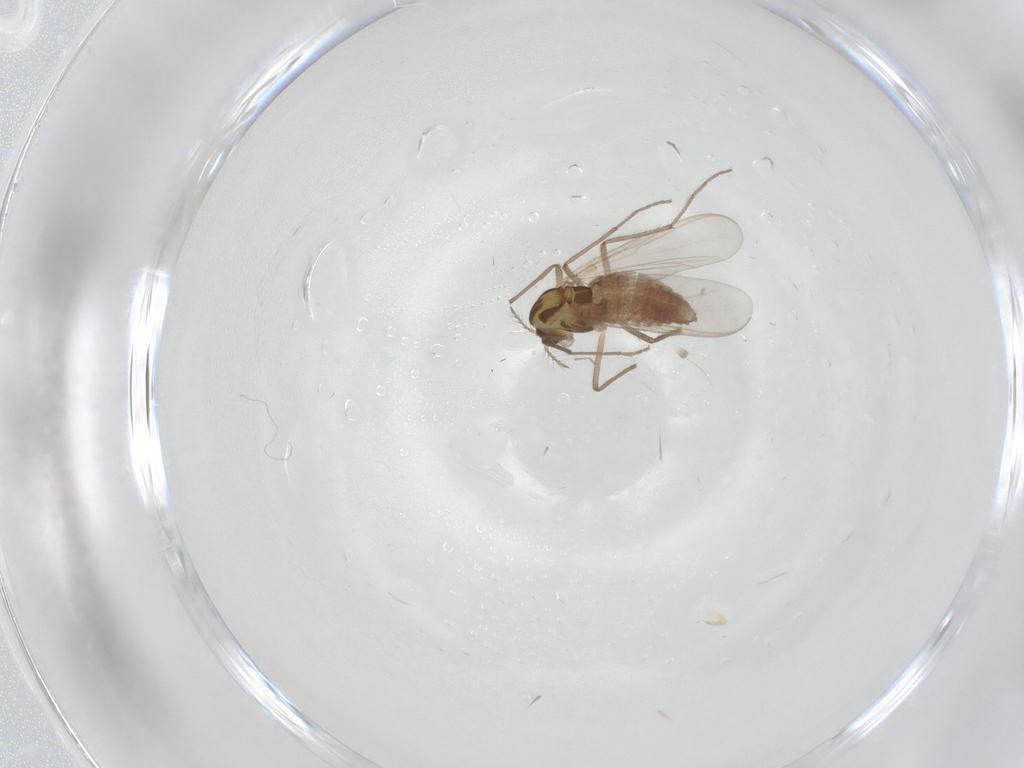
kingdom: Animalia
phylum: Arthropoda
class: Insecta
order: Diptera
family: Chironomidae
